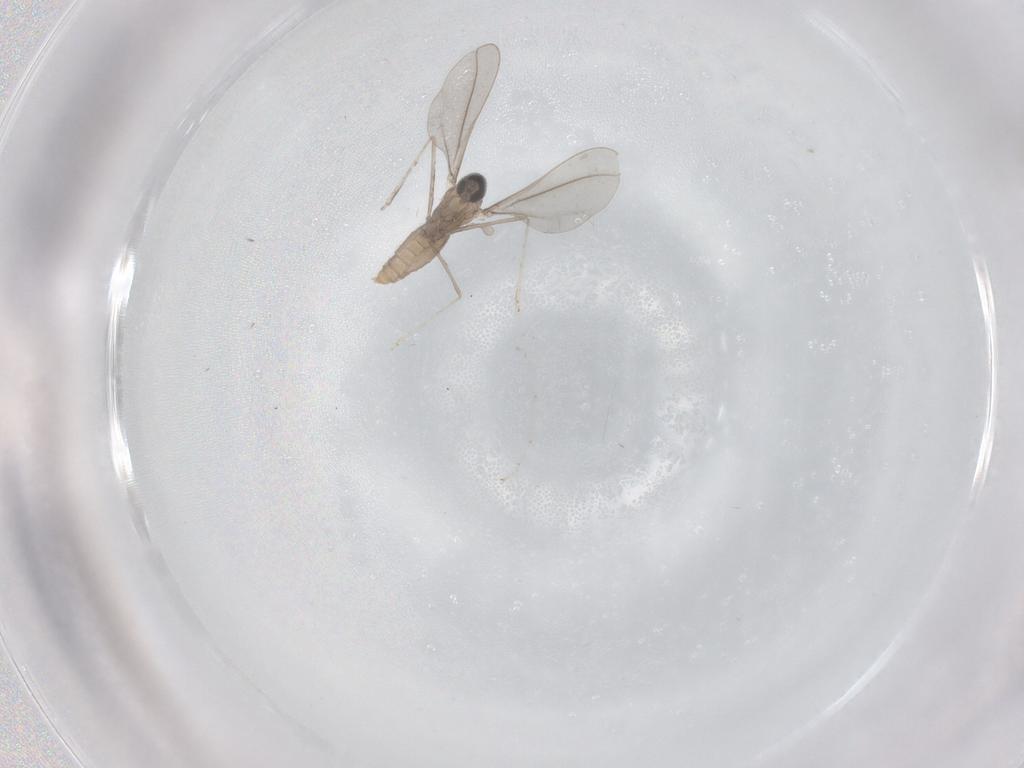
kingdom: Animalia
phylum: Arthropoda
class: Insecta
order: Diptera
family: Cecidomyiidae
